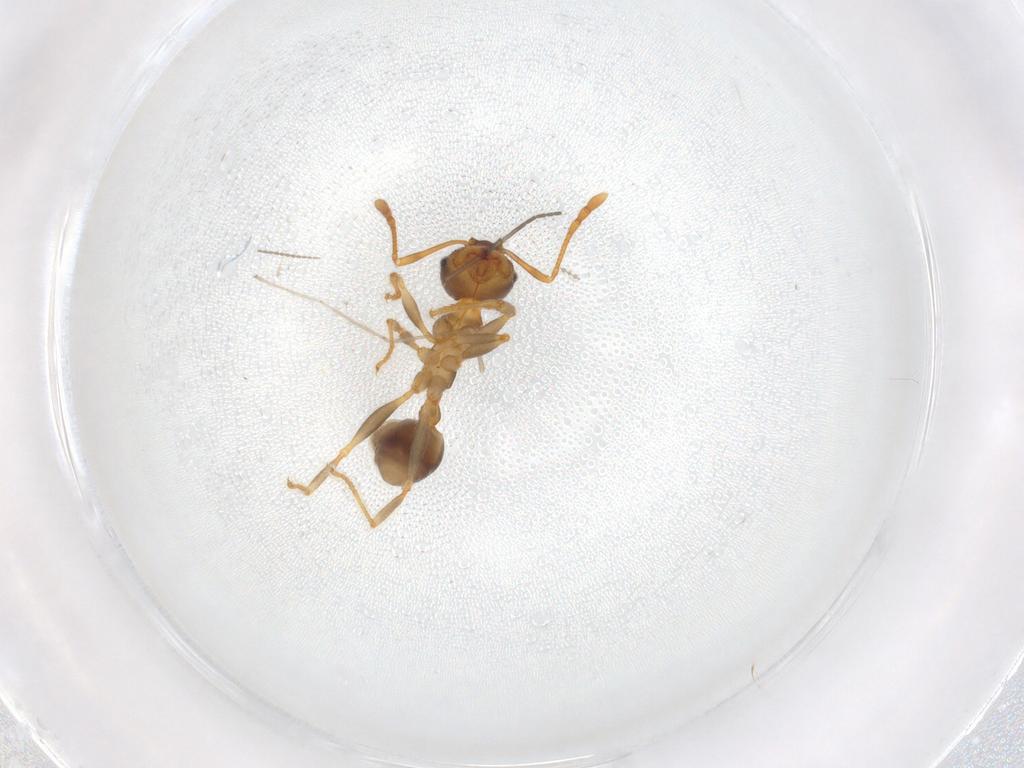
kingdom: Animalia
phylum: Arthropoda
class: Insecta
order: Hymenoptera
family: Mymaridae
